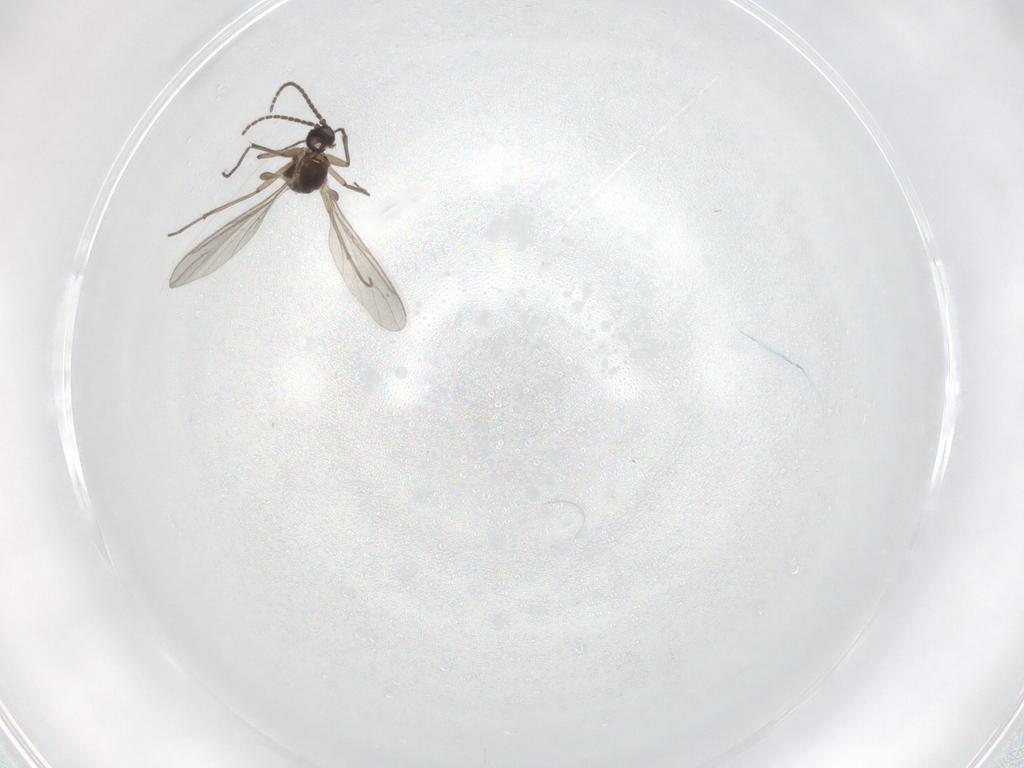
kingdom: Animalia
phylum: Arthropoda
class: Insecta
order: Diptera
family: Sciaridae
